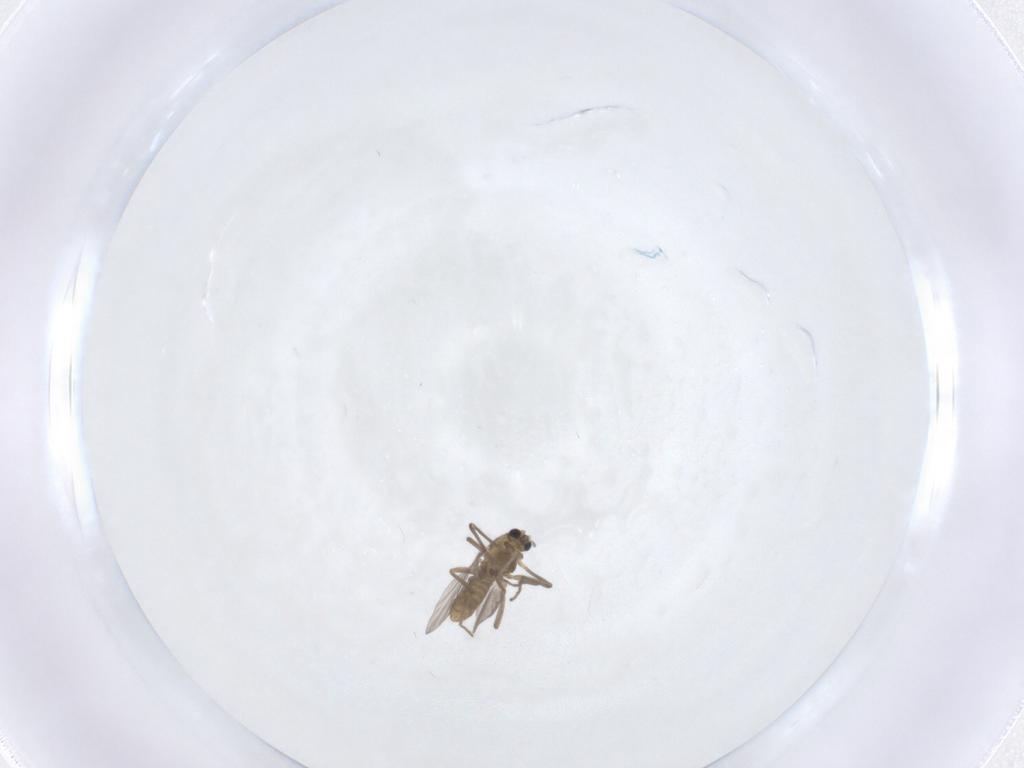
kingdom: Animalia
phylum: Arthropoda
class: Insecta
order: Diptera
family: Chironomidae
